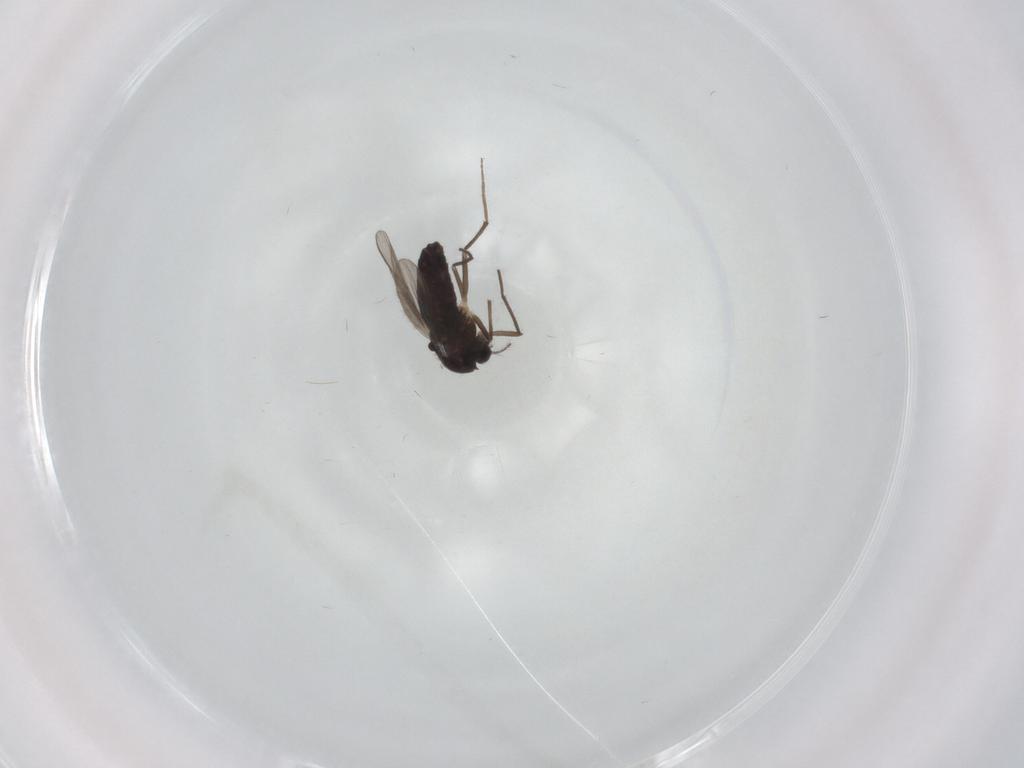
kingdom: Animalia
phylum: Arthropoda
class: Insecta
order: Diptera
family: Chironomidae
